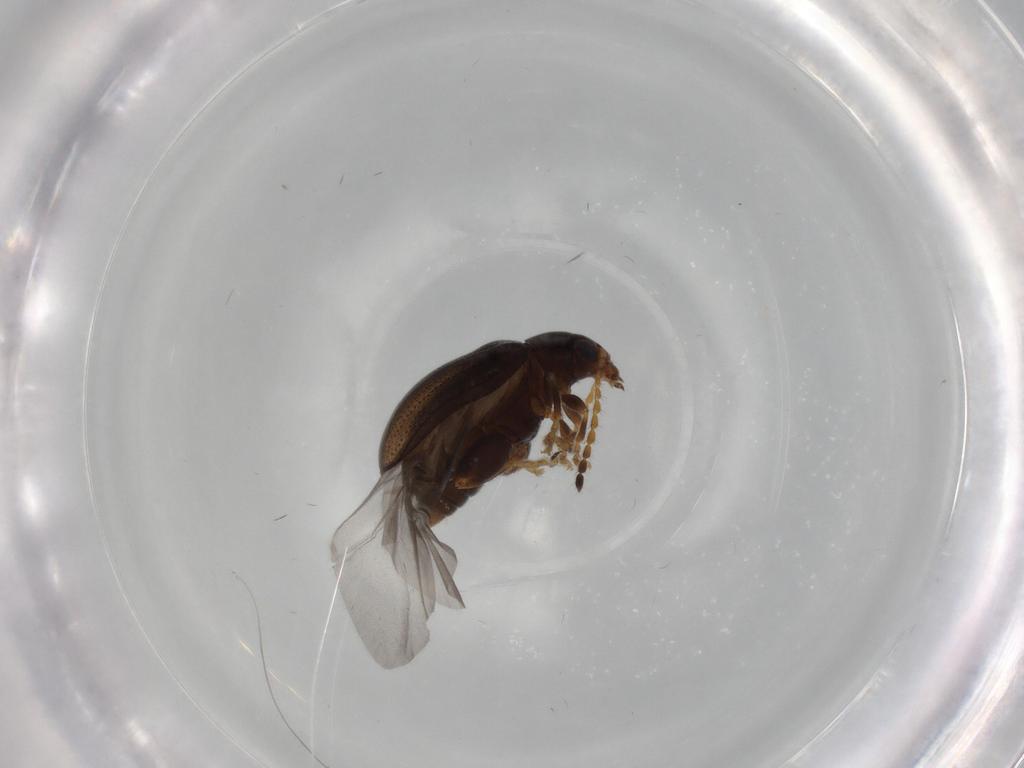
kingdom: Animalia
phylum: Arthropoda
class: Insecta
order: Coleoptera
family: Chrysomelidae
